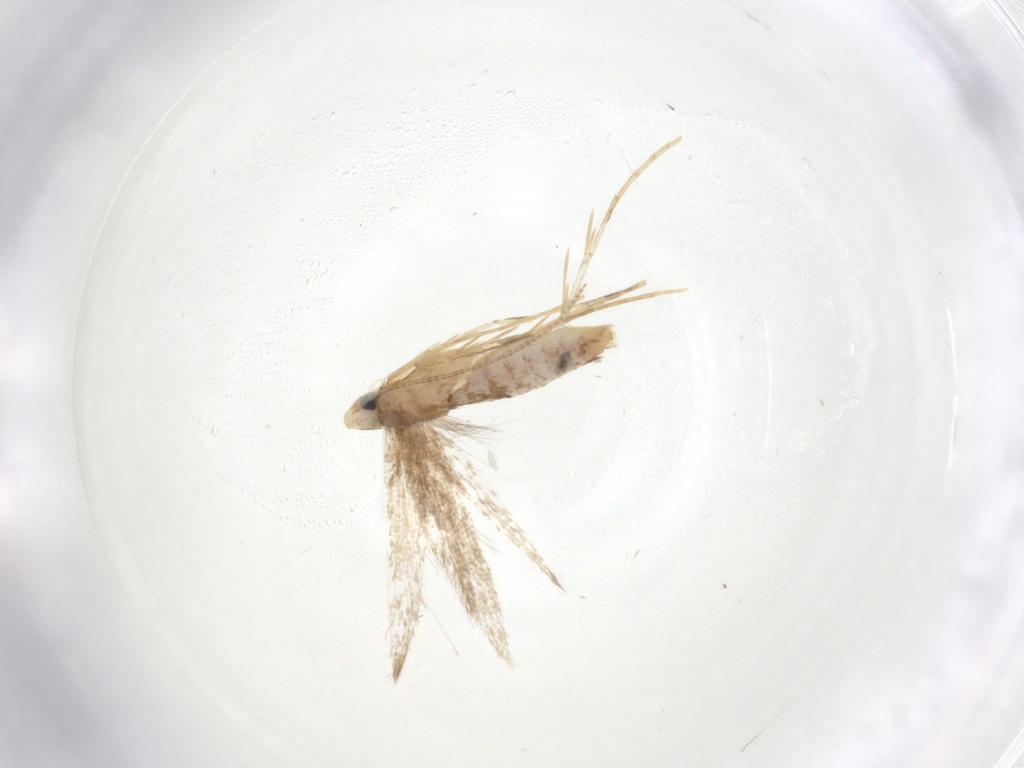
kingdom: Animalia
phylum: Arthropoda
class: Insecta
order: Lepidoptera
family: Psychidae
